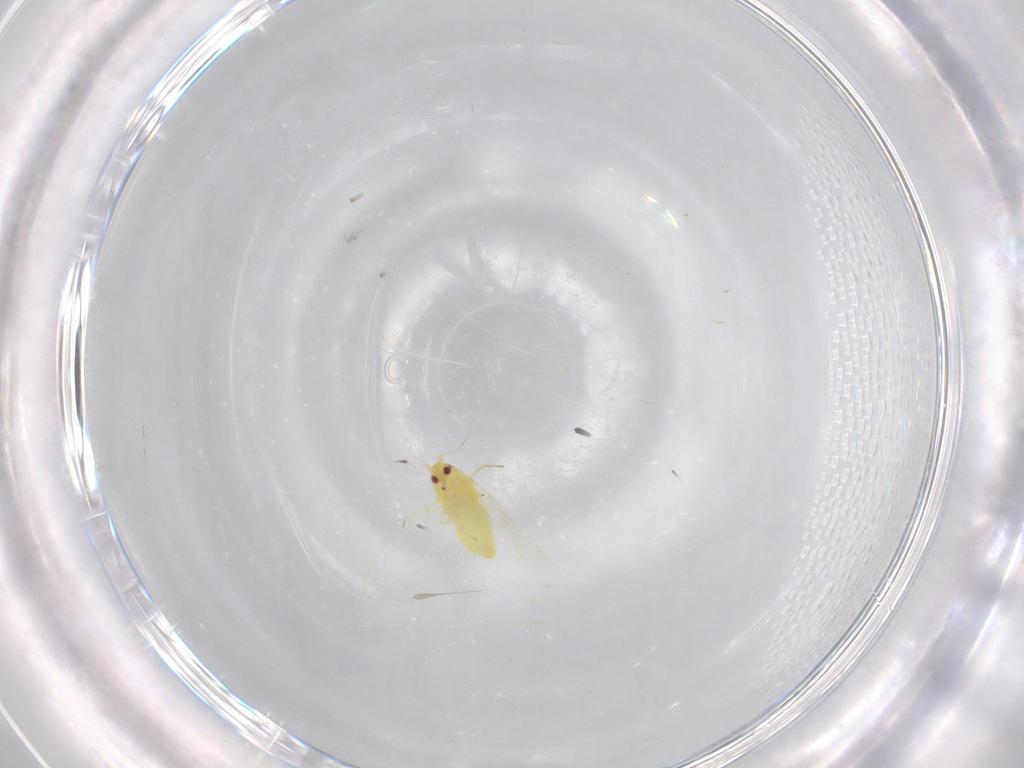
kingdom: Animalia
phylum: Arthropoda
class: Insecta
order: Hemiptera
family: Aleyrodidae
